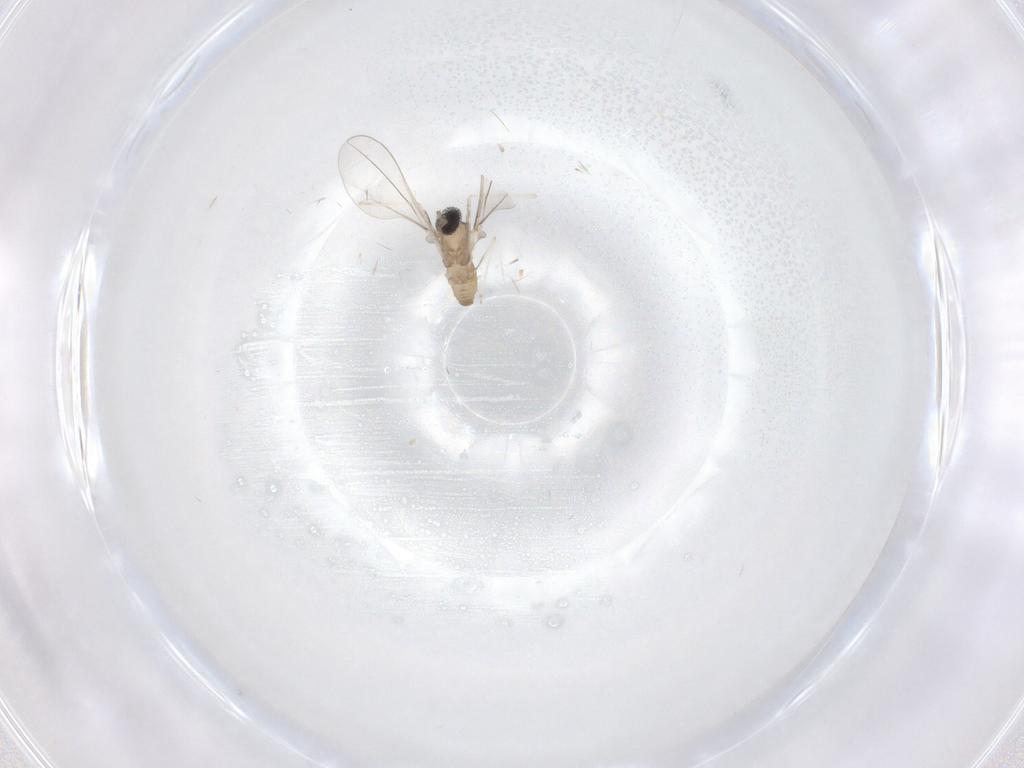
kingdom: Animalia
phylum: Arthropoda
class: Insecta
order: Diptera
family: Cecidomyiidae
